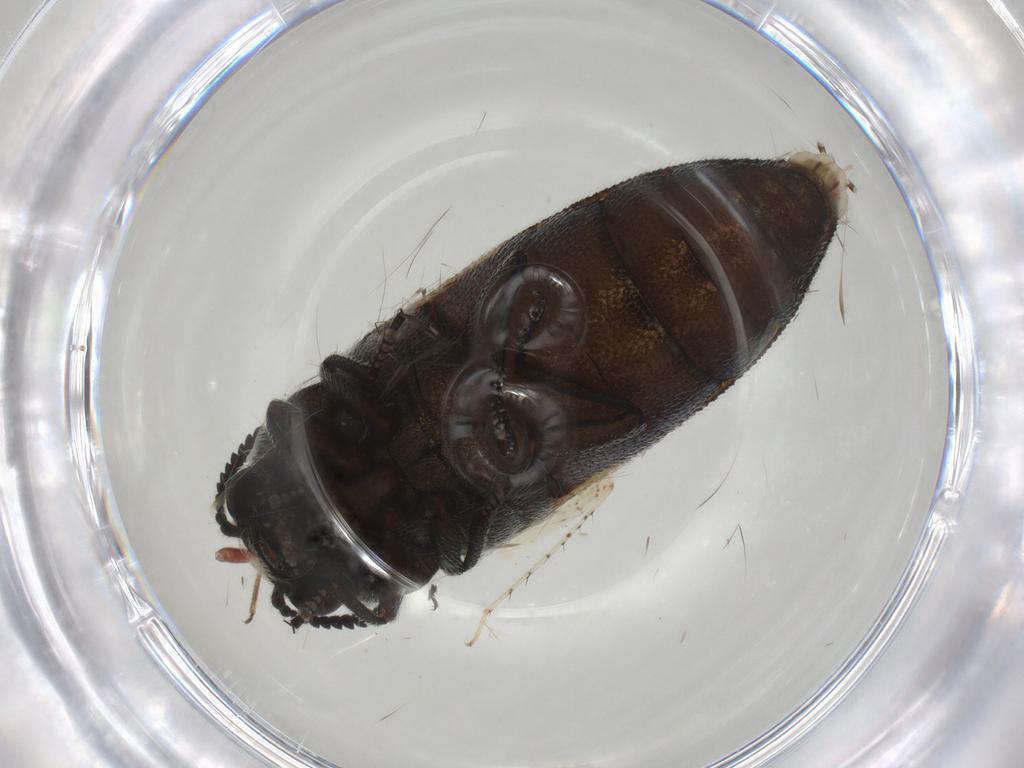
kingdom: Animalia
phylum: Arthropoda
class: Insecta
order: Coleoptera
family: Buprestidae
